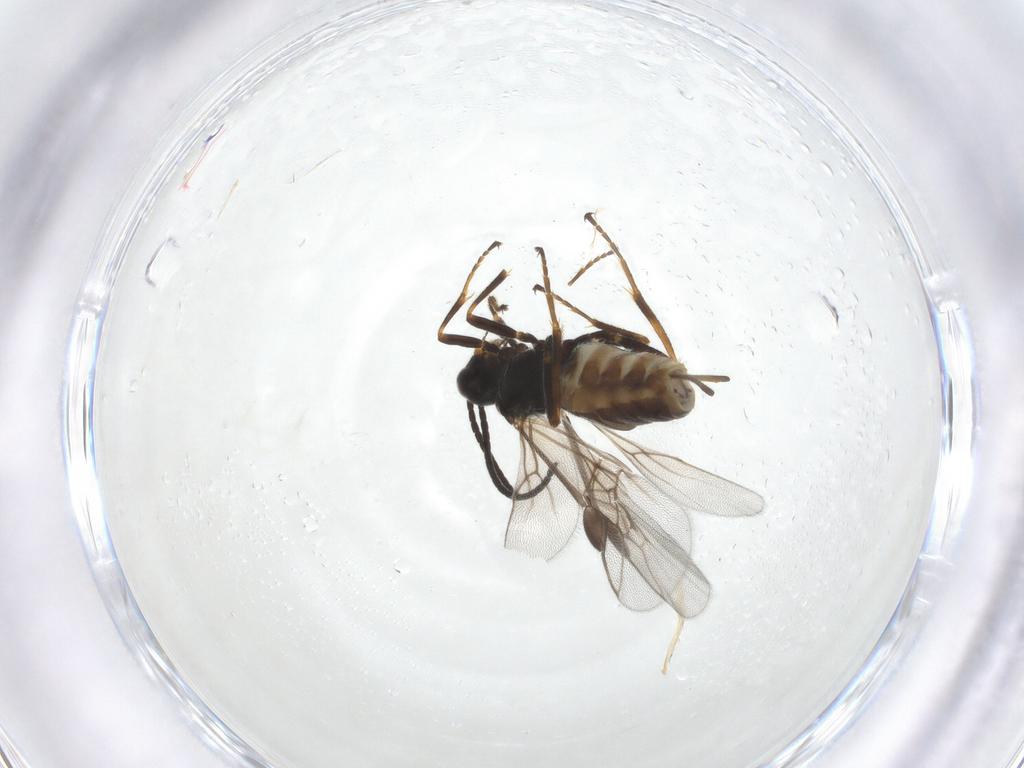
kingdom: Animalia
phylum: Arthropoda
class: Insecta
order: Hymenoptera
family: Braconidae
